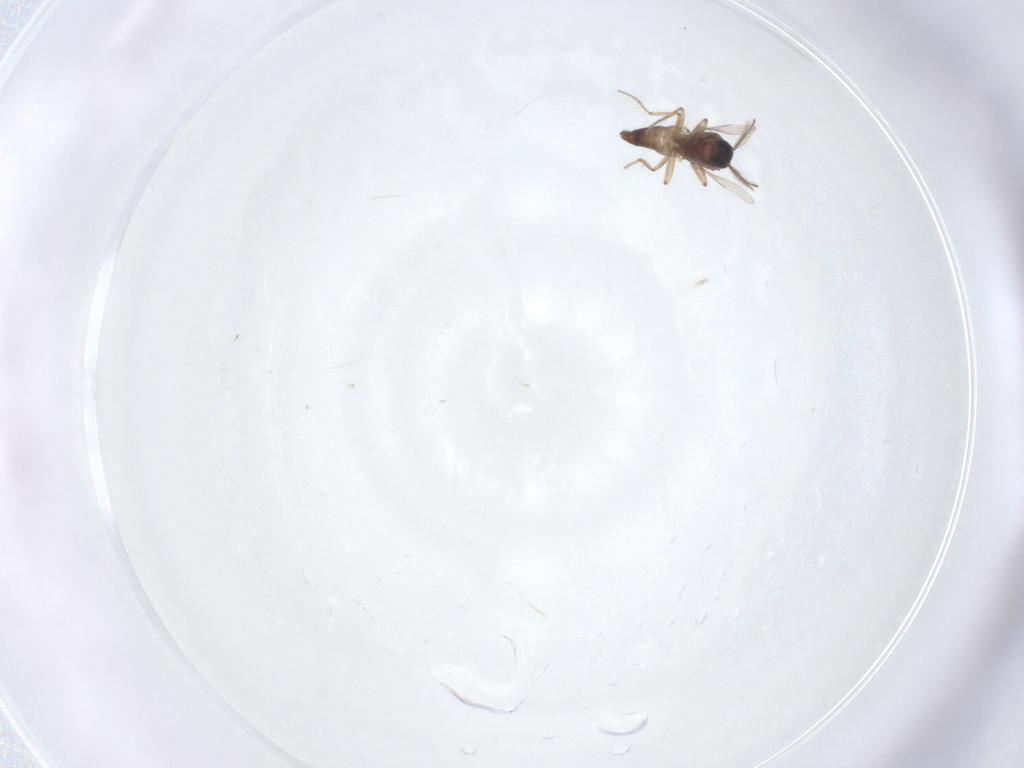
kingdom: Animalia
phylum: Arthropoda
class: Insecta
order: Diptera
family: Ceratopogonidae
